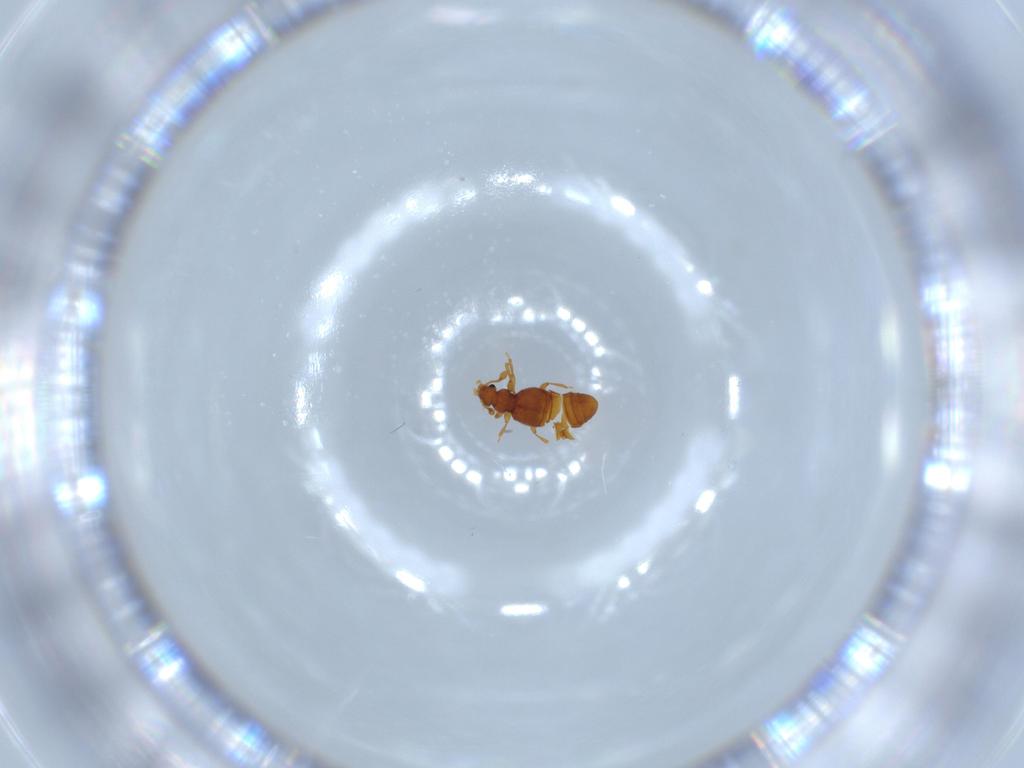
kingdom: Animalia
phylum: Arthropoda
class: Insecta
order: Coleoptera
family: Staphylinidae
